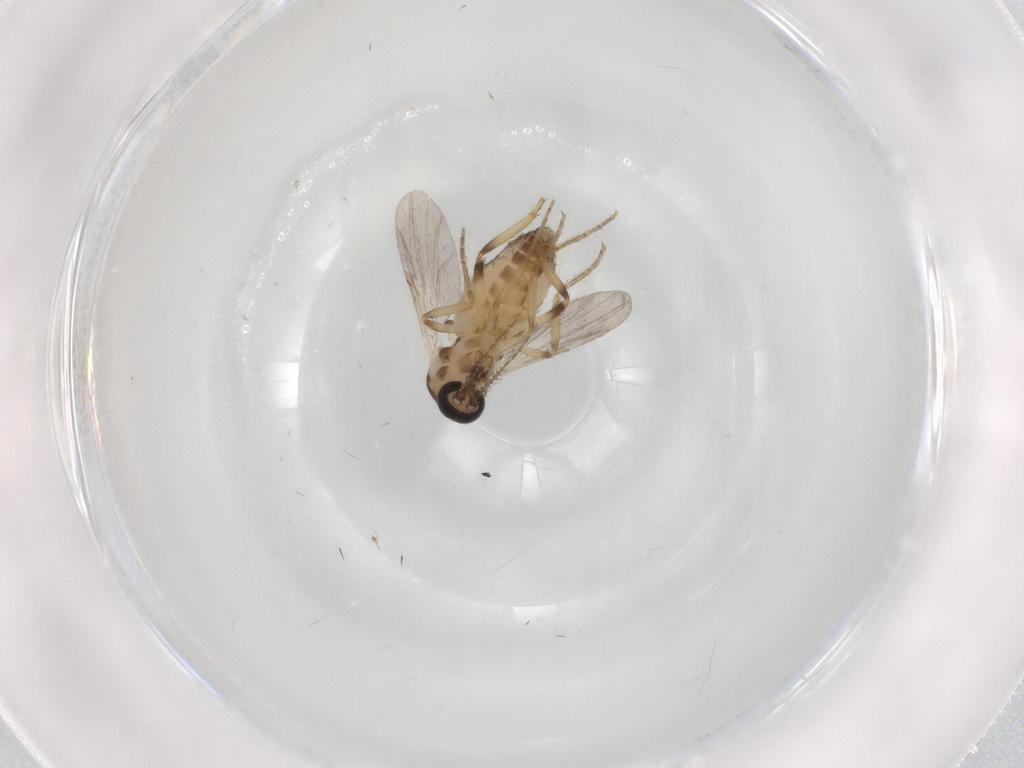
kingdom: Animalia
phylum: Arthropoda
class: Insecta
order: Diptera
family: Ceratopogonidae
